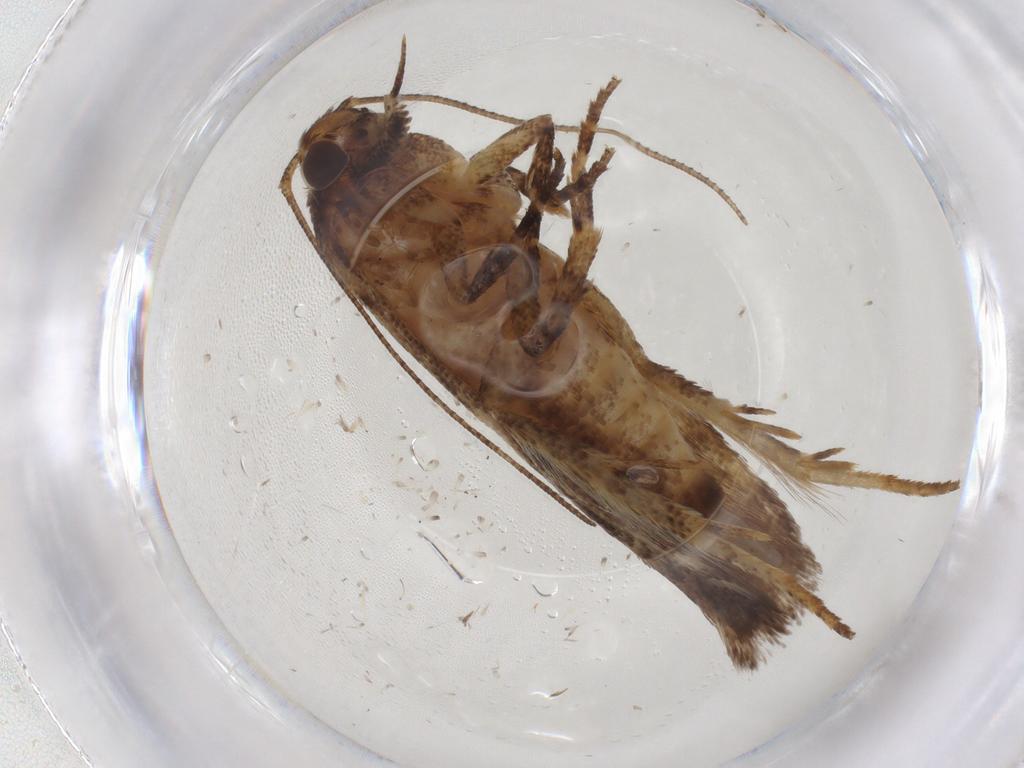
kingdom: Animalia
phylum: Arthropoda
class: Insecta
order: Lepidoptera
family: Gelechiidae
